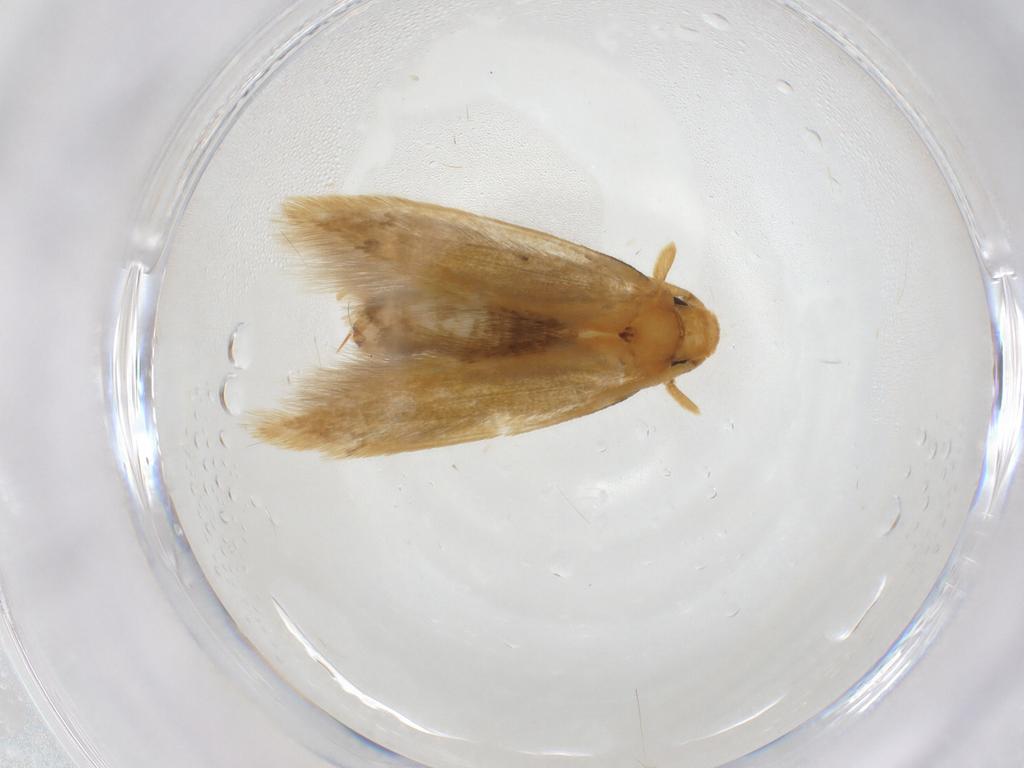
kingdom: Animalia
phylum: Arthropoda
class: Insecta
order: Lepidoptera
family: Tineidae
